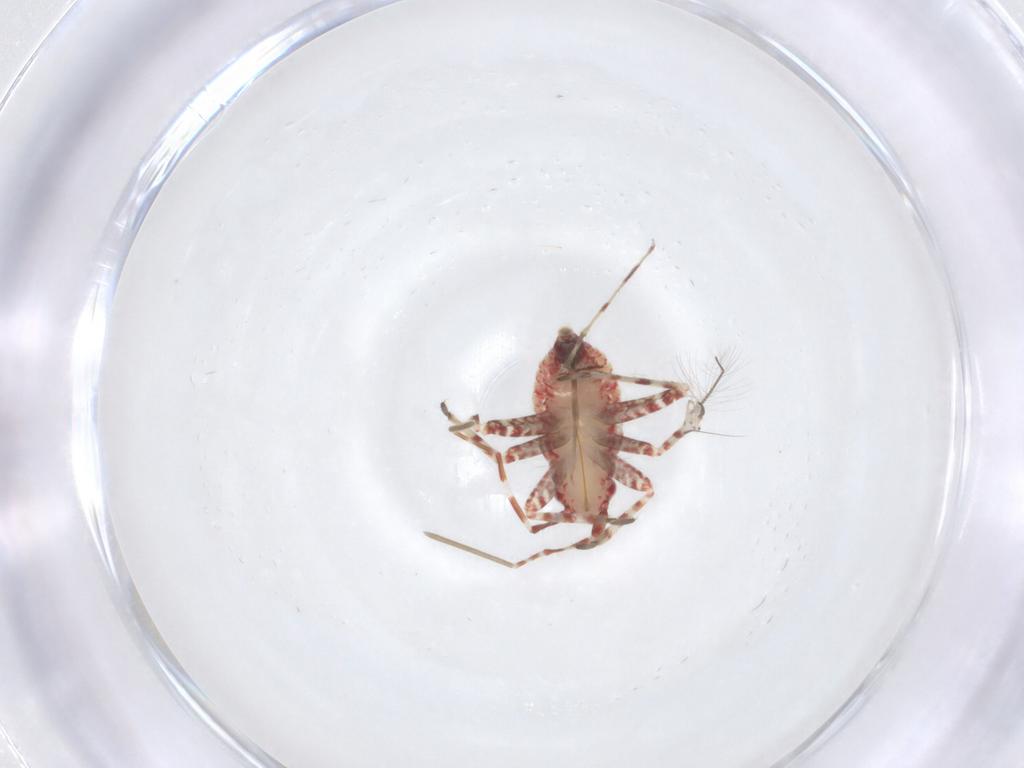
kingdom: Animalia
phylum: Arthropoda
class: Insecta
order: Hemiptera
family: Miridae
